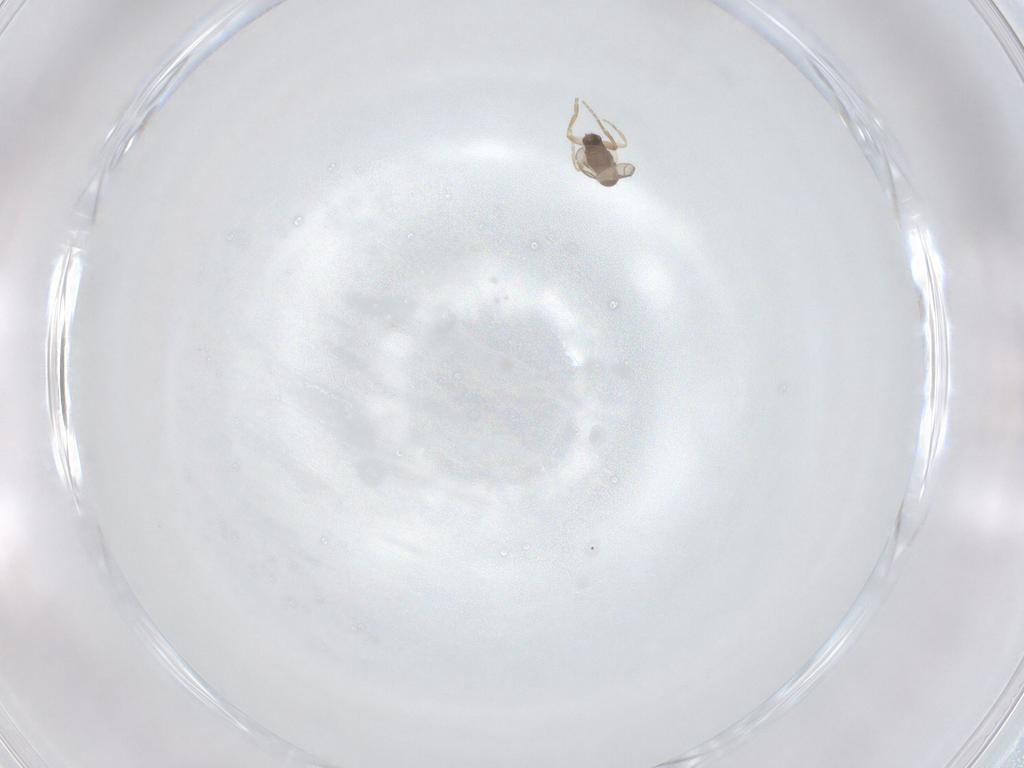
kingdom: Animalia
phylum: Arthropoda
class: Insecta
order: Diptera
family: Phoridae
